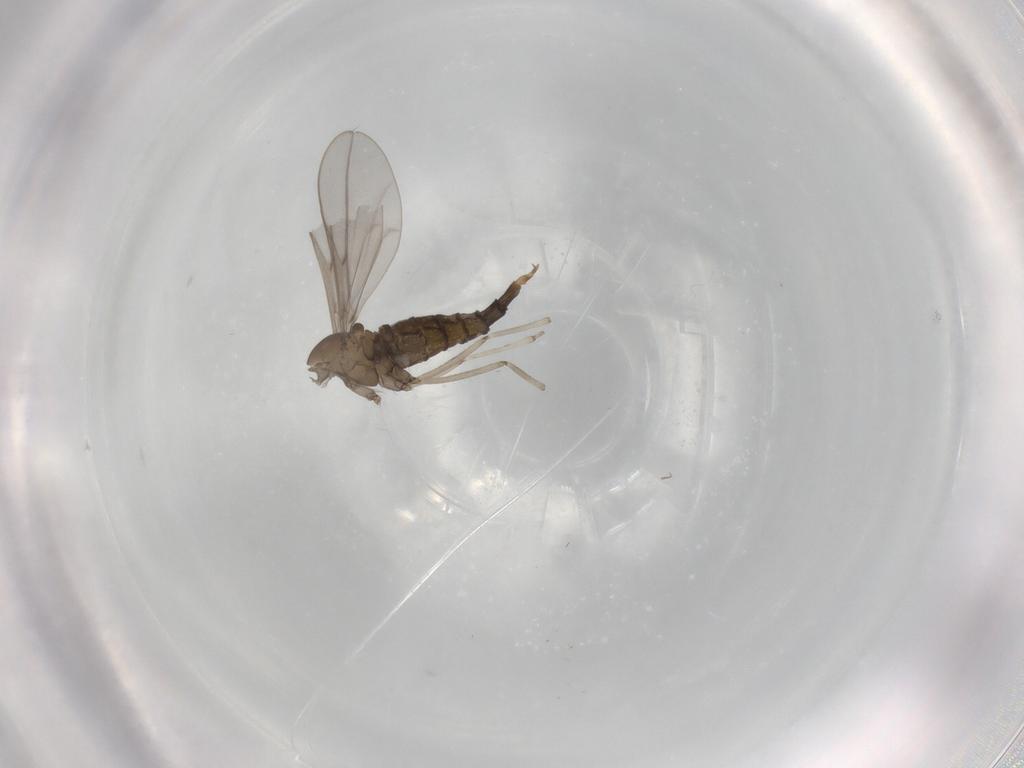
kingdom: Animalia
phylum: Arthropoda
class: Insecta
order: Diptera
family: Cecidomyiidae
